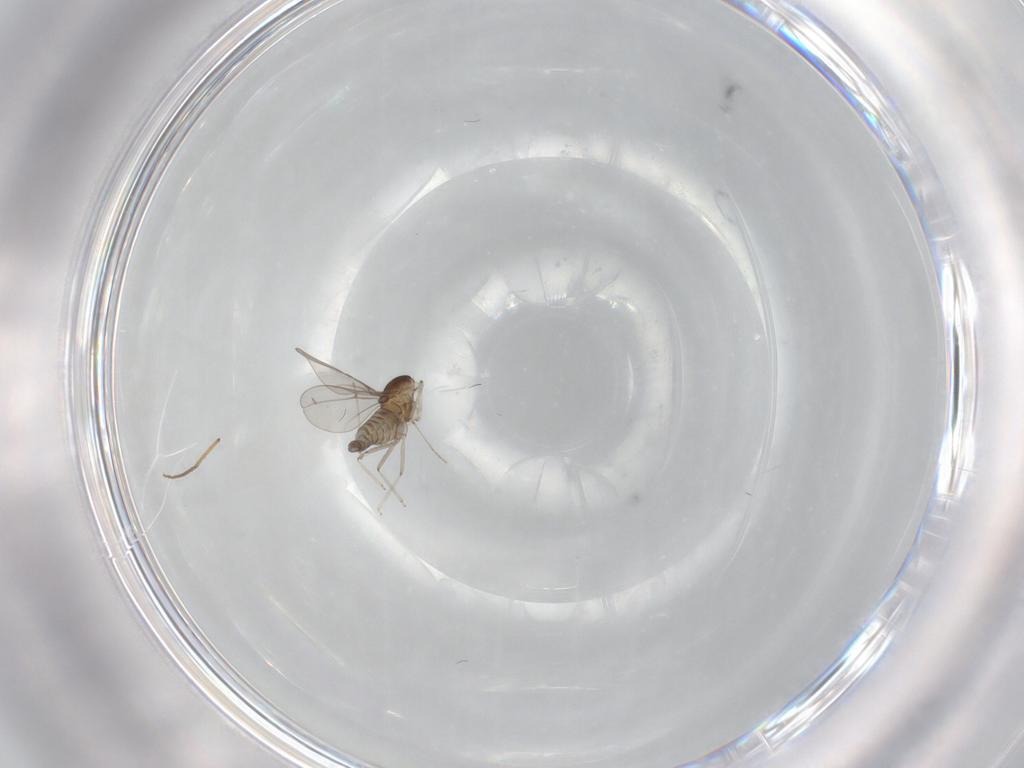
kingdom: Animalia
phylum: Arthropoda
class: Insecta
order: Diptera
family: Cecidomyiidae
